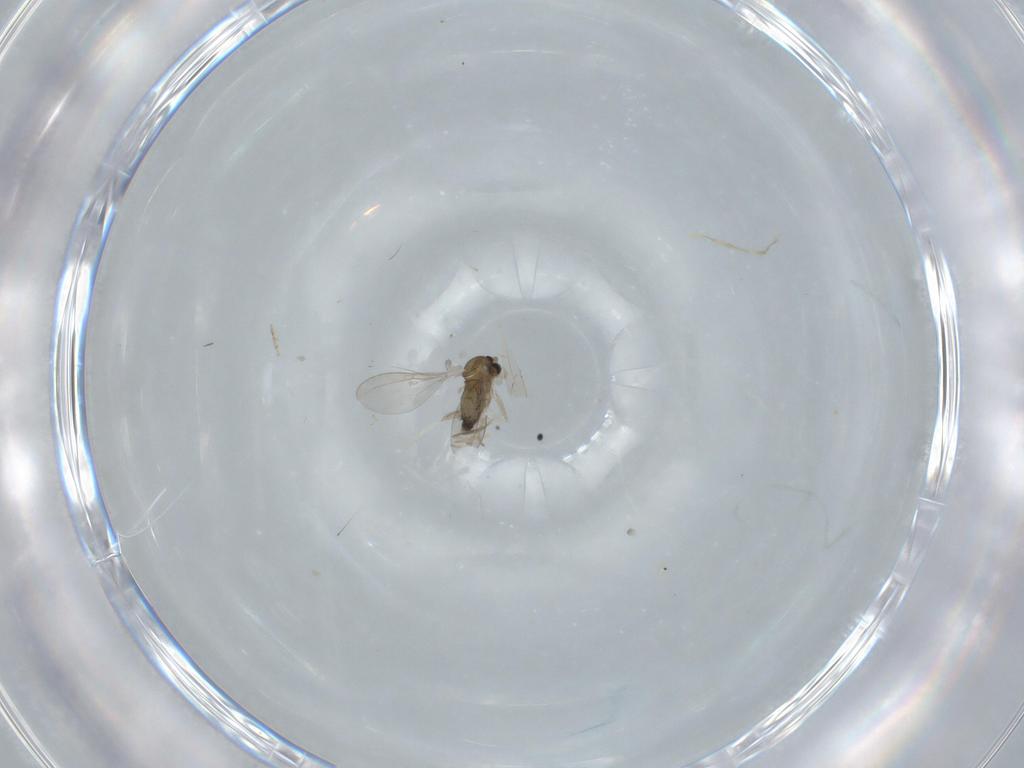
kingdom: Animalia
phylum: Arthropoda
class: Insecta
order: Diptera
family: Cecidomyiidae
